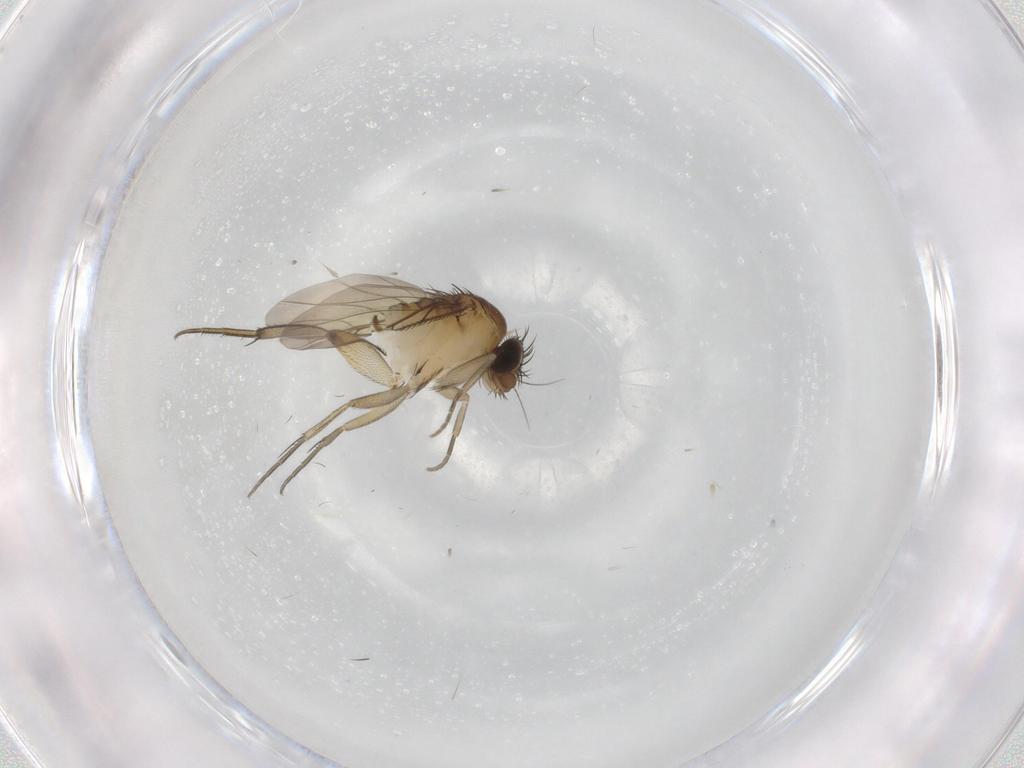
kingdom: Animalia
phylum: Arthropoda
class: Insecta
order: Diptera
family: Phoridae
